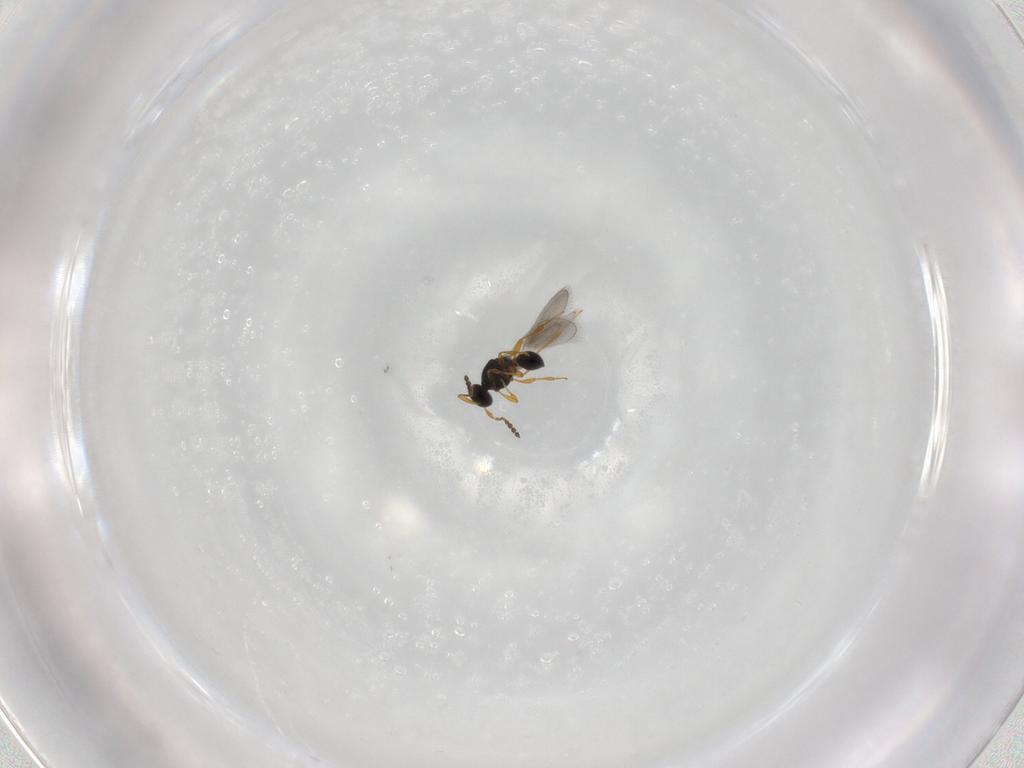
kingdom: Animalia
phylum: Arthropoda
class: Insecta
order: Hymenoptera
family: Platygastridae
